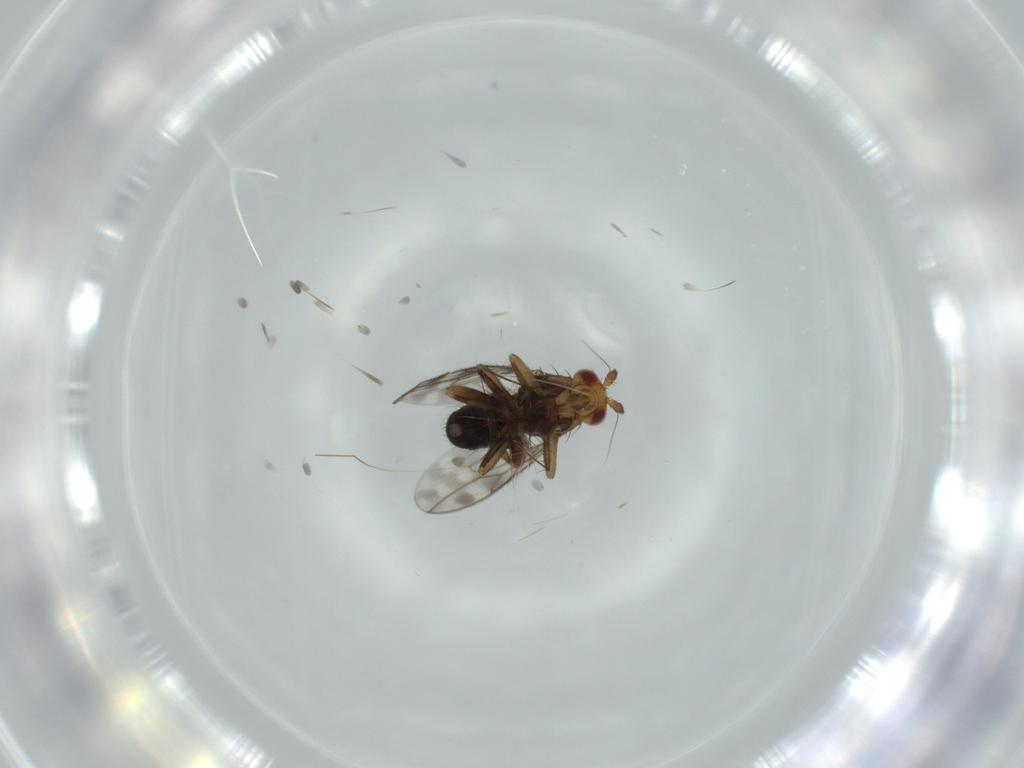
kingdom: Animalia
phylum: Arthropoda
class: Insecta
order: Diptera
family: Sphaeroceridae
